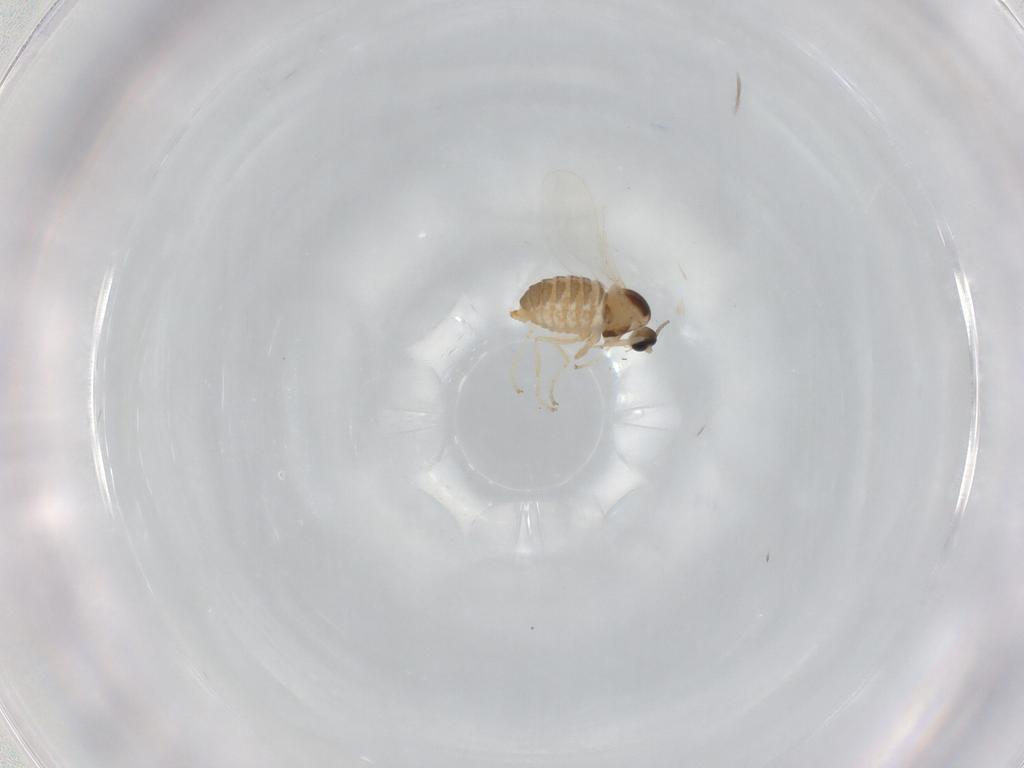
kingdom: Animalia
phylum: Arthropoda
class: Insecta
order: Diptera
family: Cecidomyiidae
